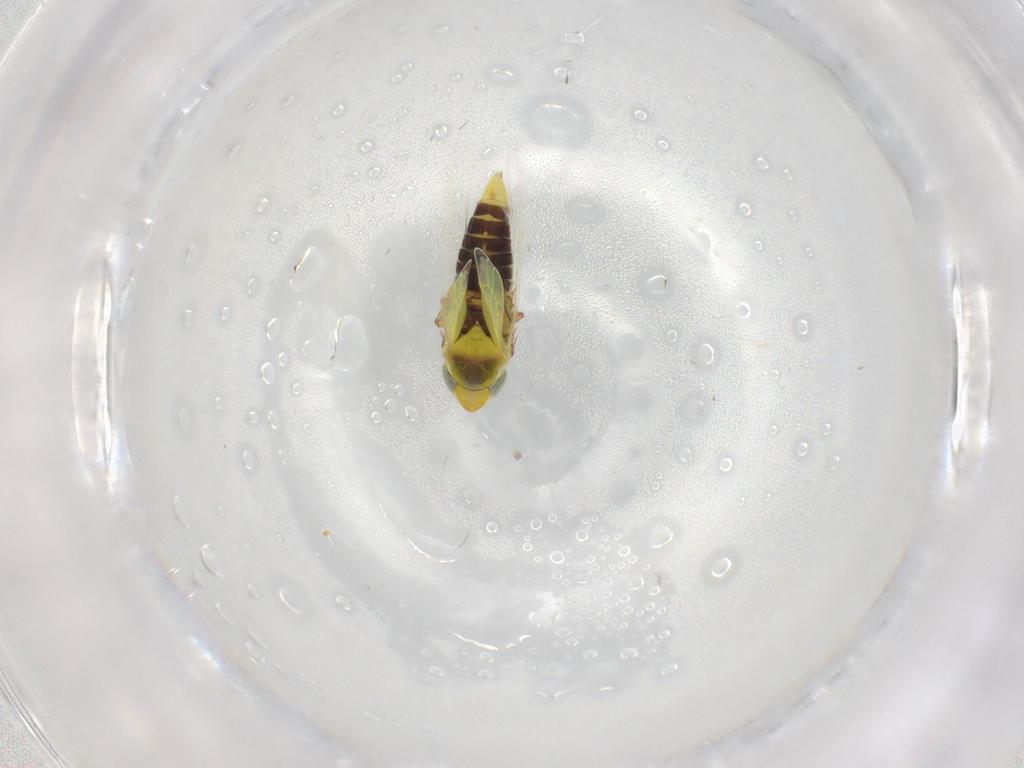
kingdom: Animalia
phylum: Arthropoda
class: Insecta
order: Hemiptera
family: Cicadellidae
